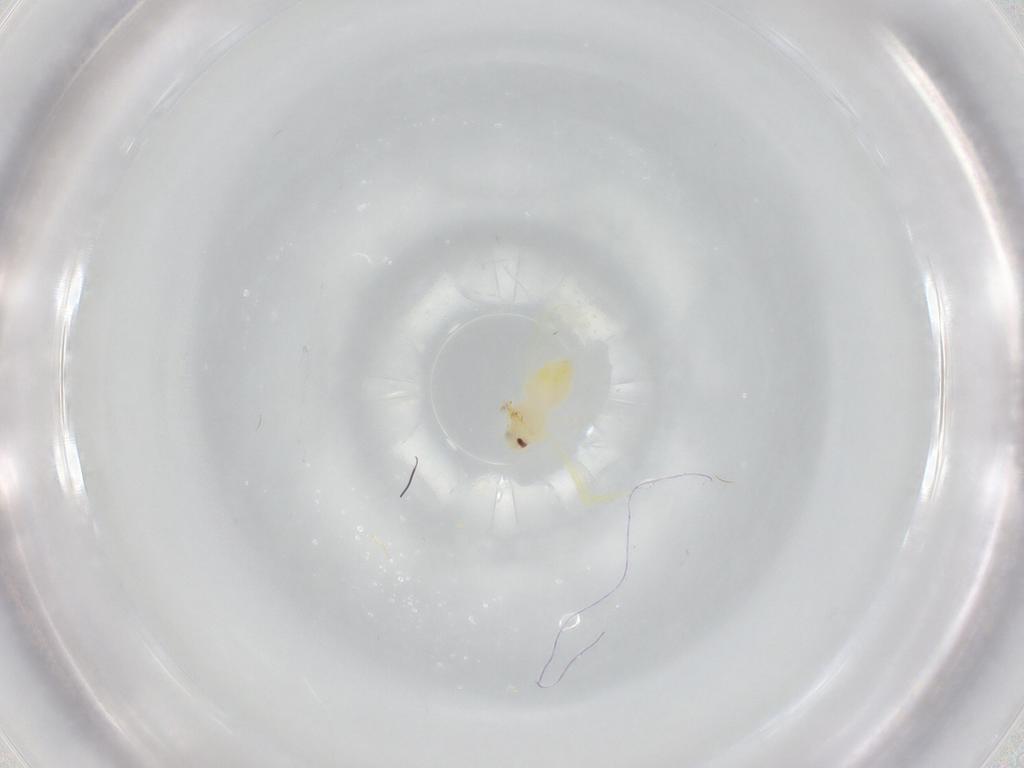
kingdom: Animalia
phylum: Arthropoda
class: Insecta
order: Hemiptera
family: Aleyrodidae
